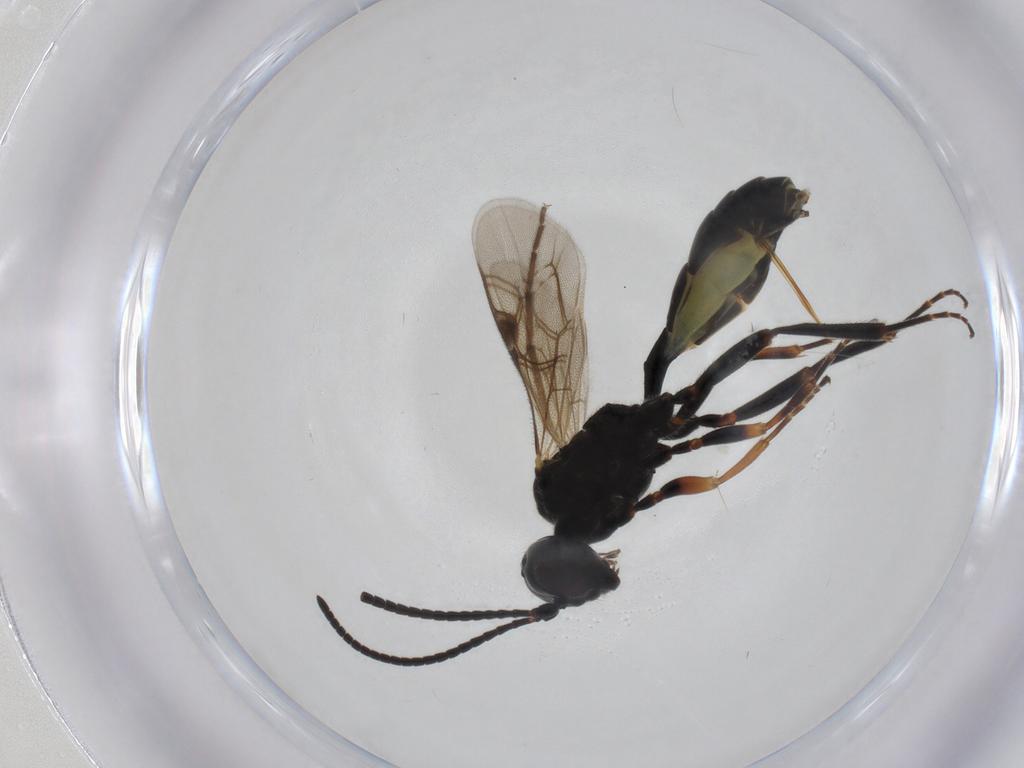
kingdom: Animalia
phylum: Arthropoda
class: Insecta
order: Hymenoptera
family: Ichneumonidae
